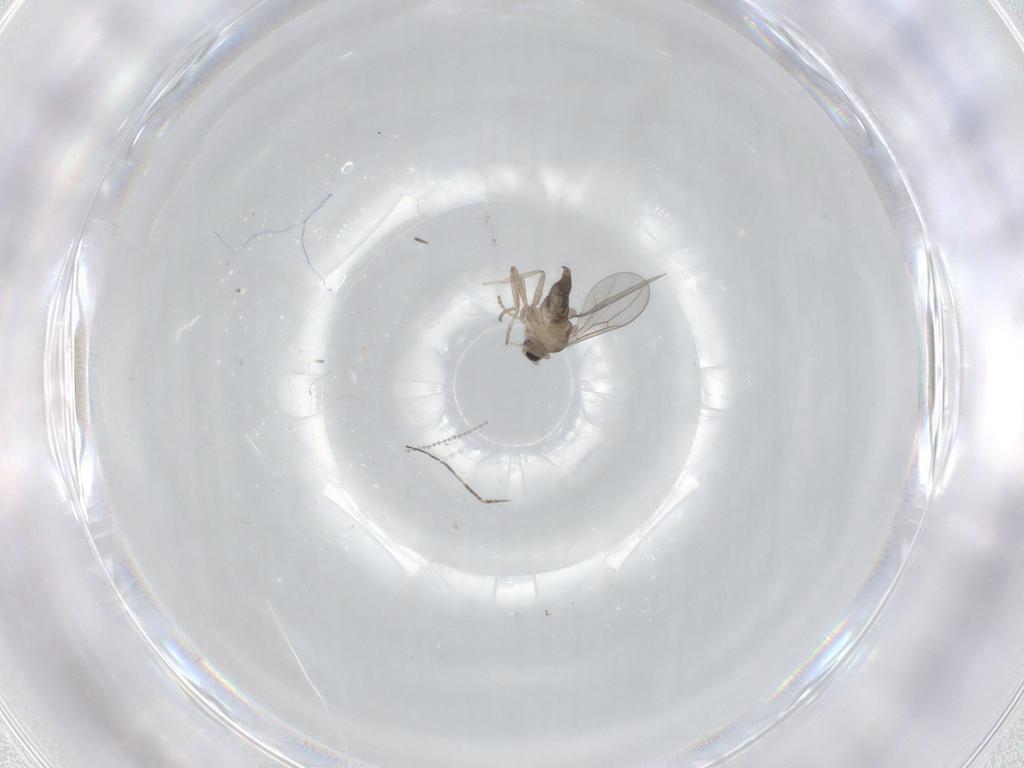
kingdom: Animalia
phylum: Arthropoda
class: Insecta
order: Diptera
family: Cecidomyiidae
